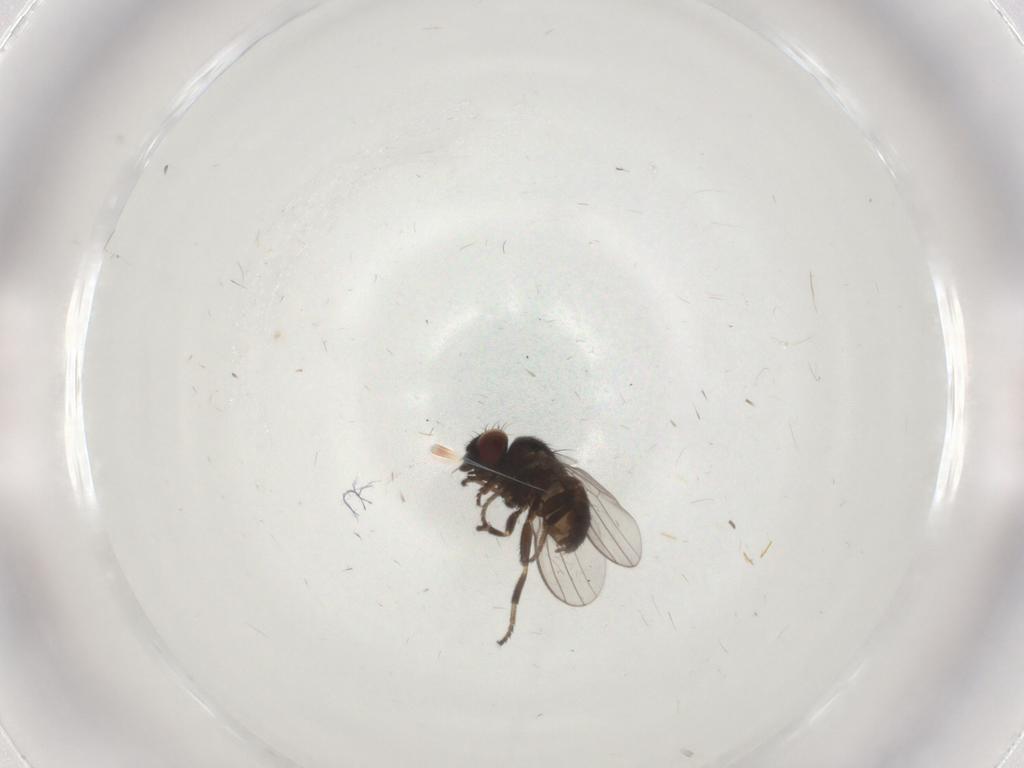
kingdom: Animalia
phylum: Arthropoda
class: Insecta
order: Diptera
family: Milichiidae
